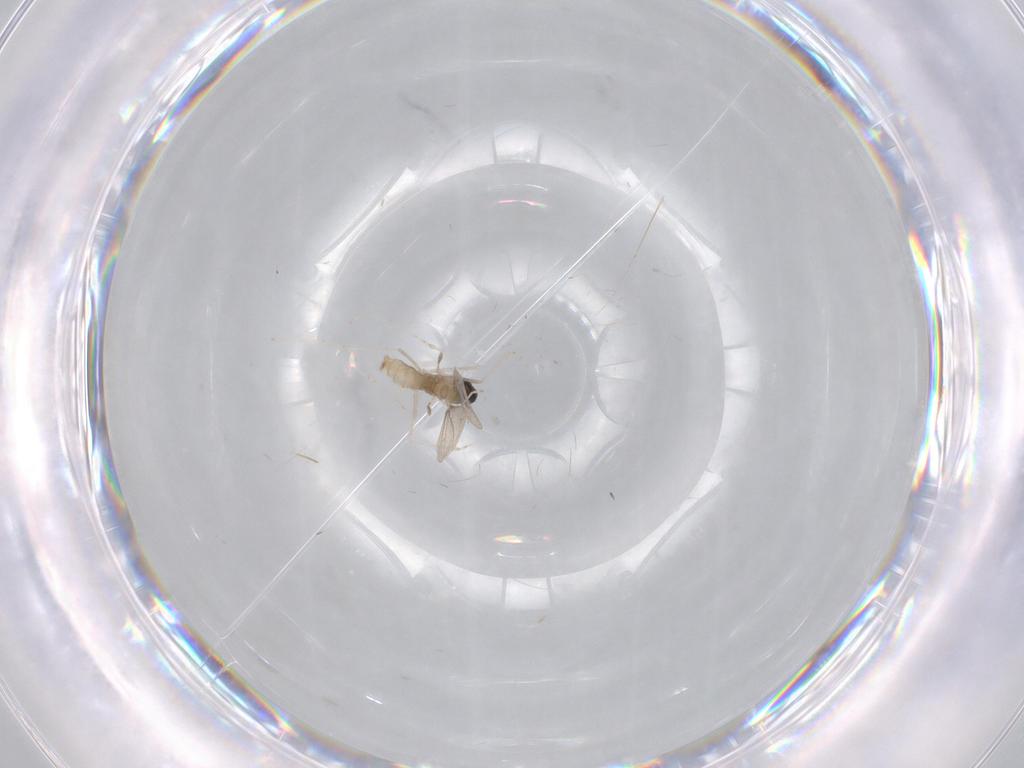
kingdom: Animalia
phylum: Arthropoda
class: Insecta
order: Diptera
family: Cecidomyiidae
